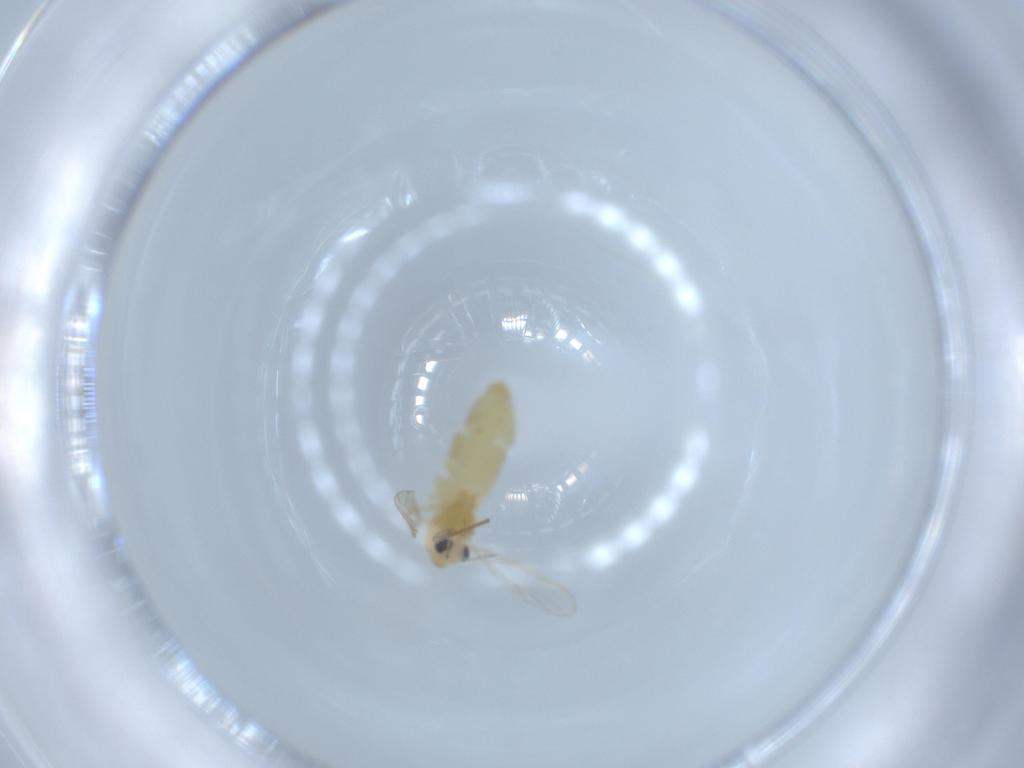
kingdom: Animalia
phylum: Arthropoda
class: Insecta
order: Diptera
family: Chironomidae
